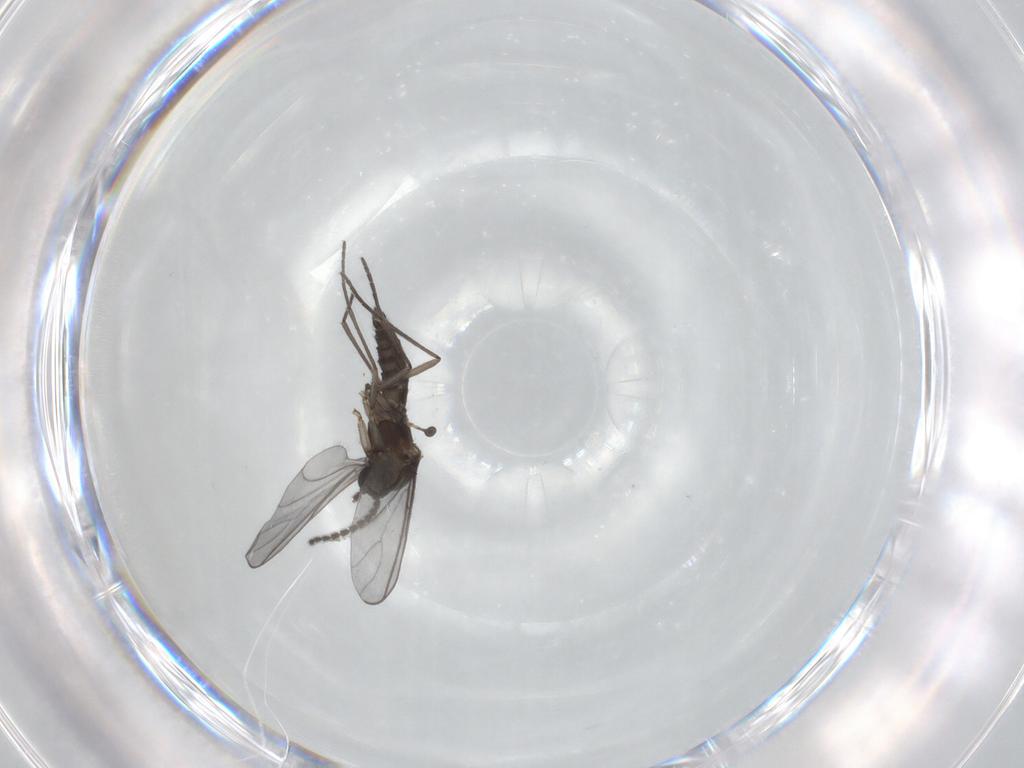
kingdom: Animalia
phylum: Arthropoda
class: Insecta
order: Diptera
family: Sciaridae
